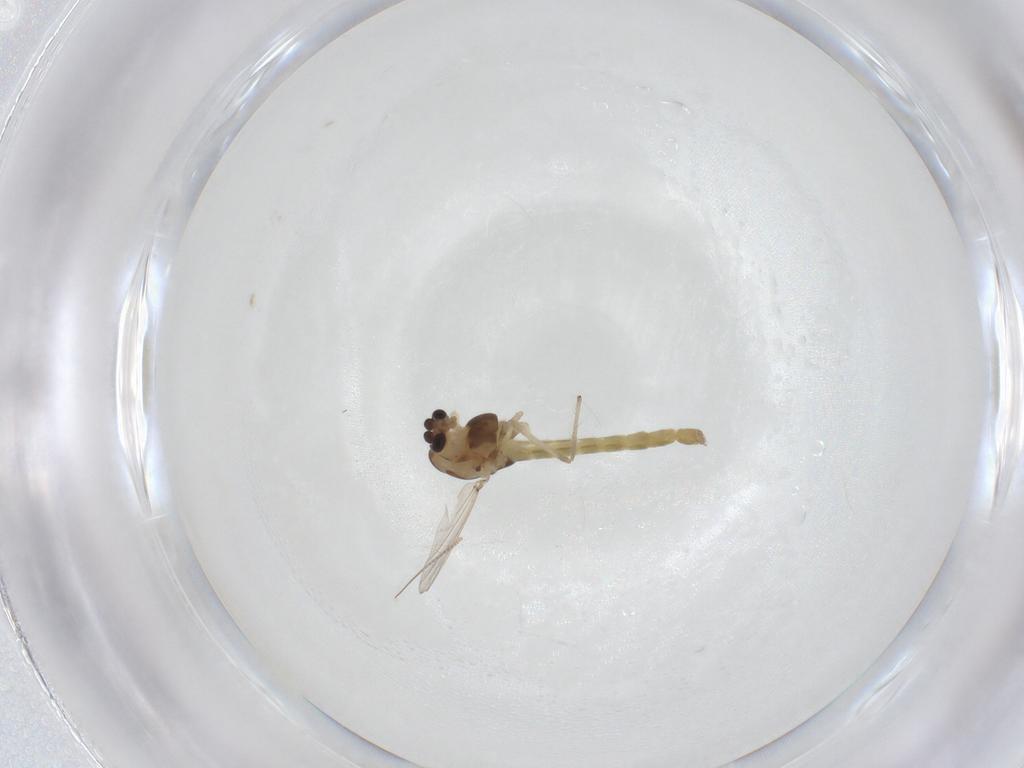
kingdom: Animalia
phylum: Arthropoda
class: Insecta
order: Diptera
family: Chironomidae
